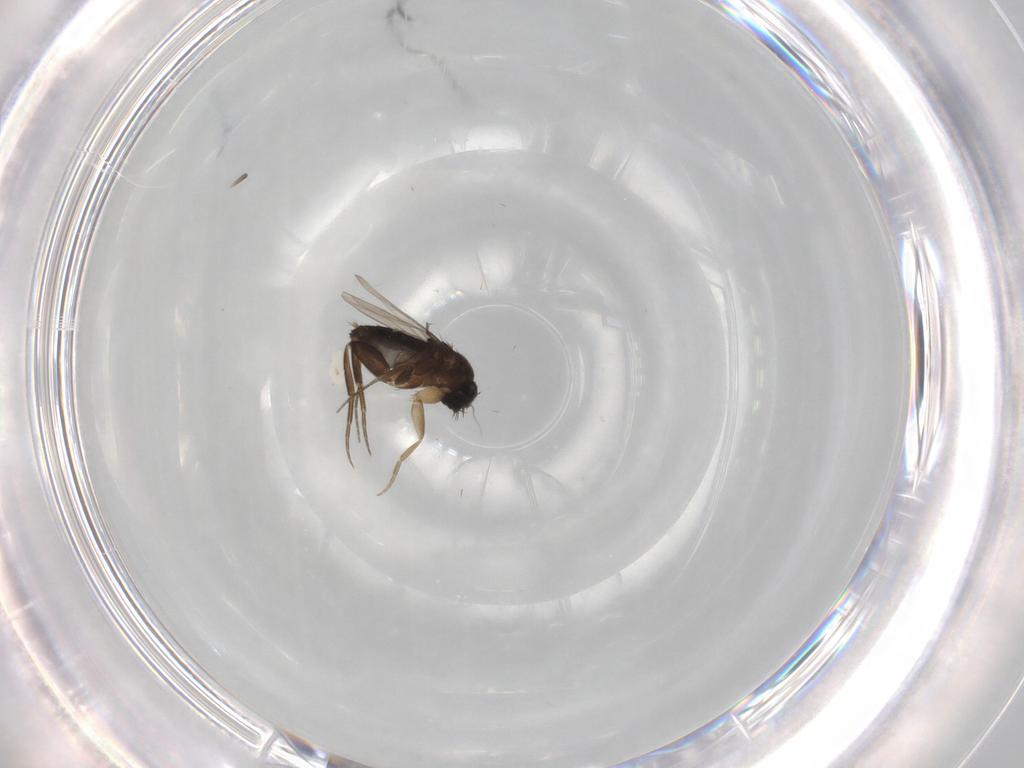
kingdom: Animalia
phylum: Arthropoda
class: Insecta
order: Diptera
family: Phoridae
